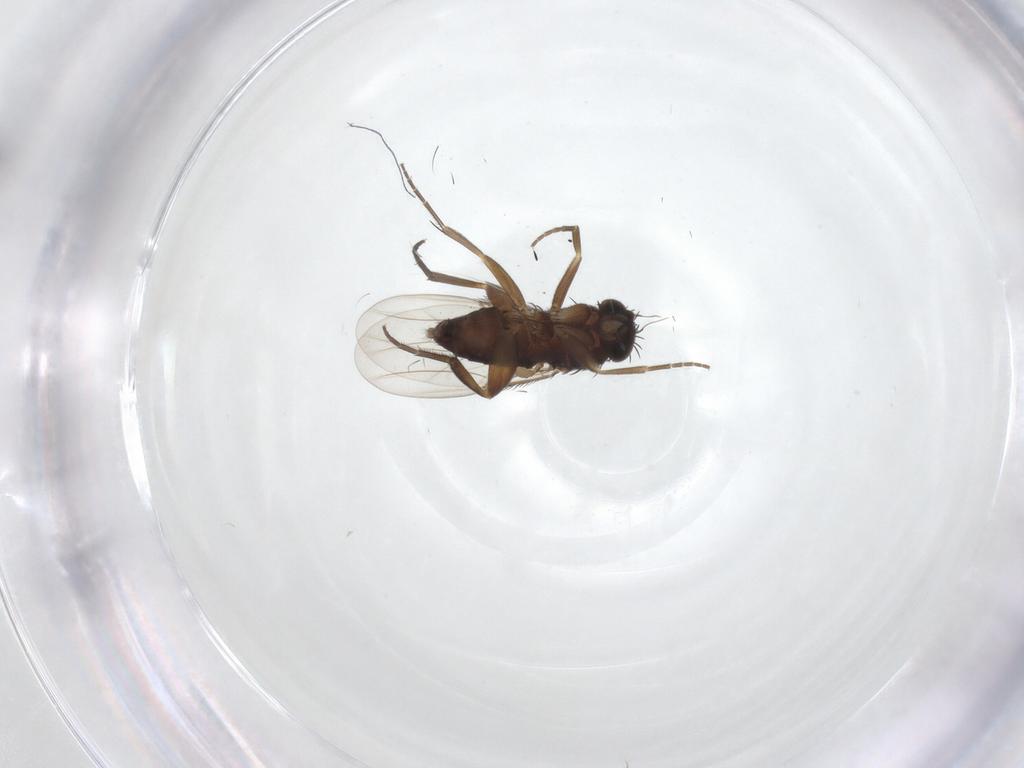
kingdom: Animalia
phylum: Arthropoda
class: Insecta
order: Diptera
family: Phoridae
